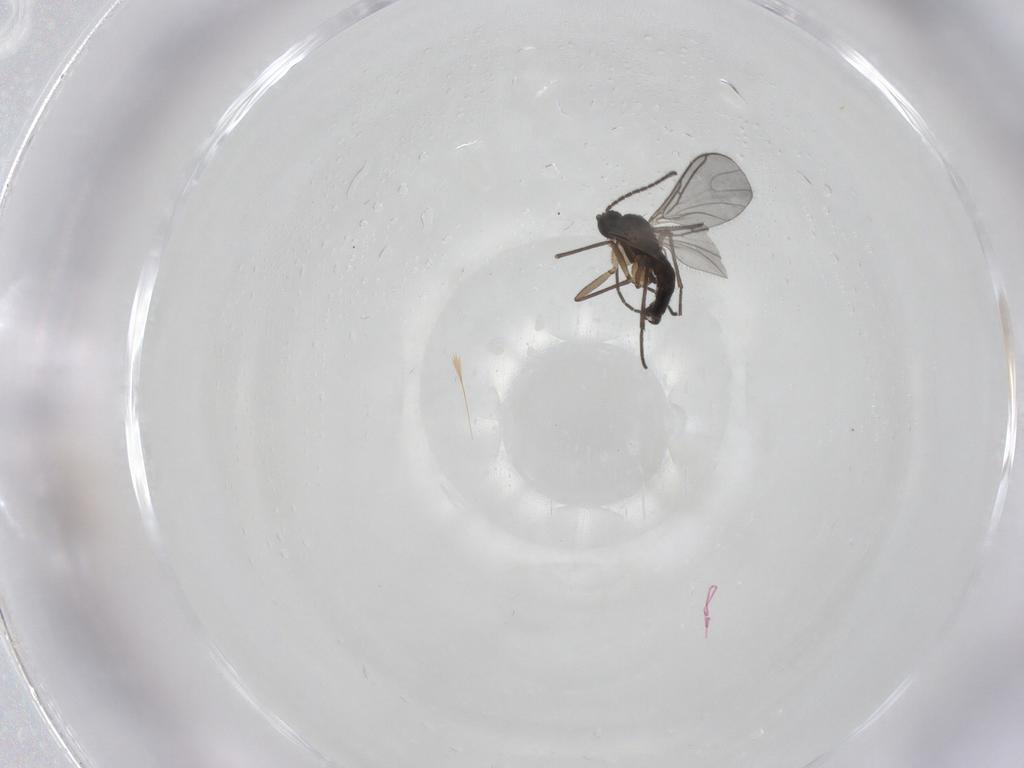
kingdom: Animalia
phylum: Arthropoda
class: Insecta
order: Diptera
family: Sciaridae
